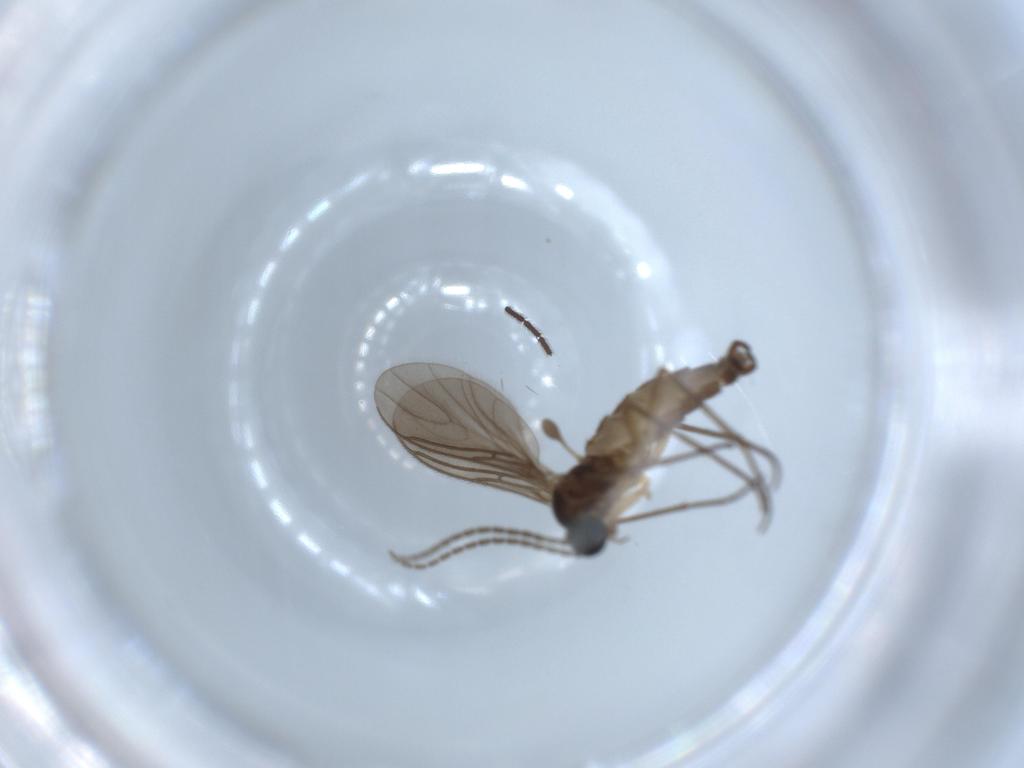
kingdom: Animalia
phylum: Arthropoda
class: Insecta
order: Diptera
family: Sciaridae
